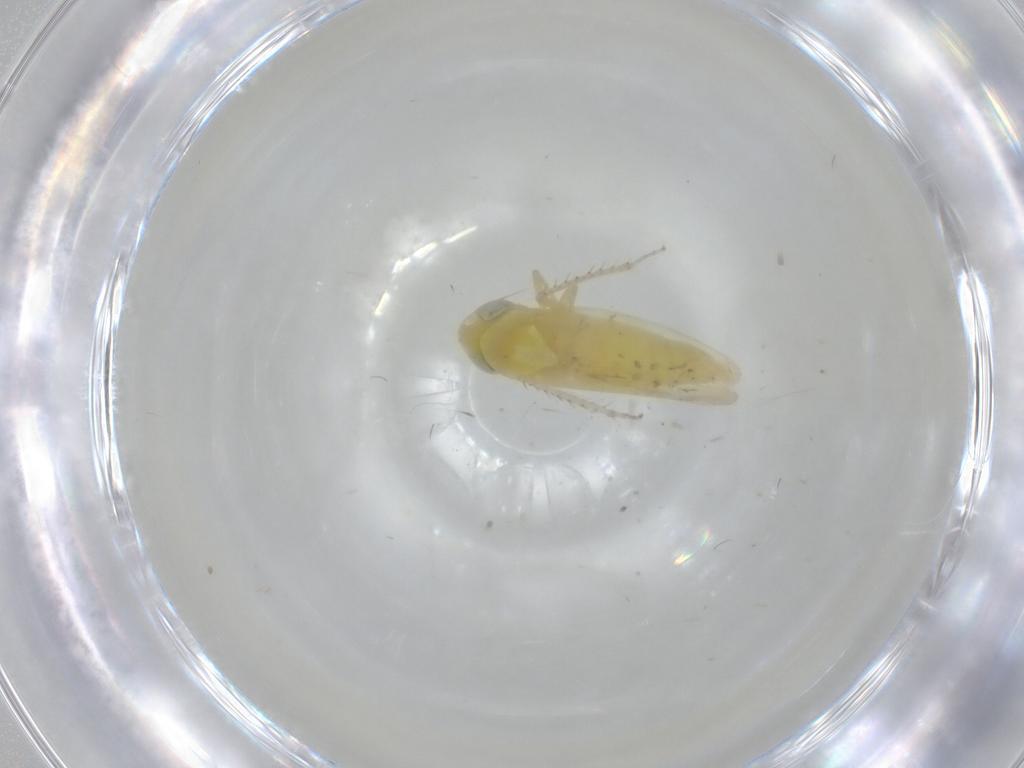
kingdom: Animalia
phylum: Arthropoda
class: Insecta
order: Hemiptera
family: Cicadellidae
